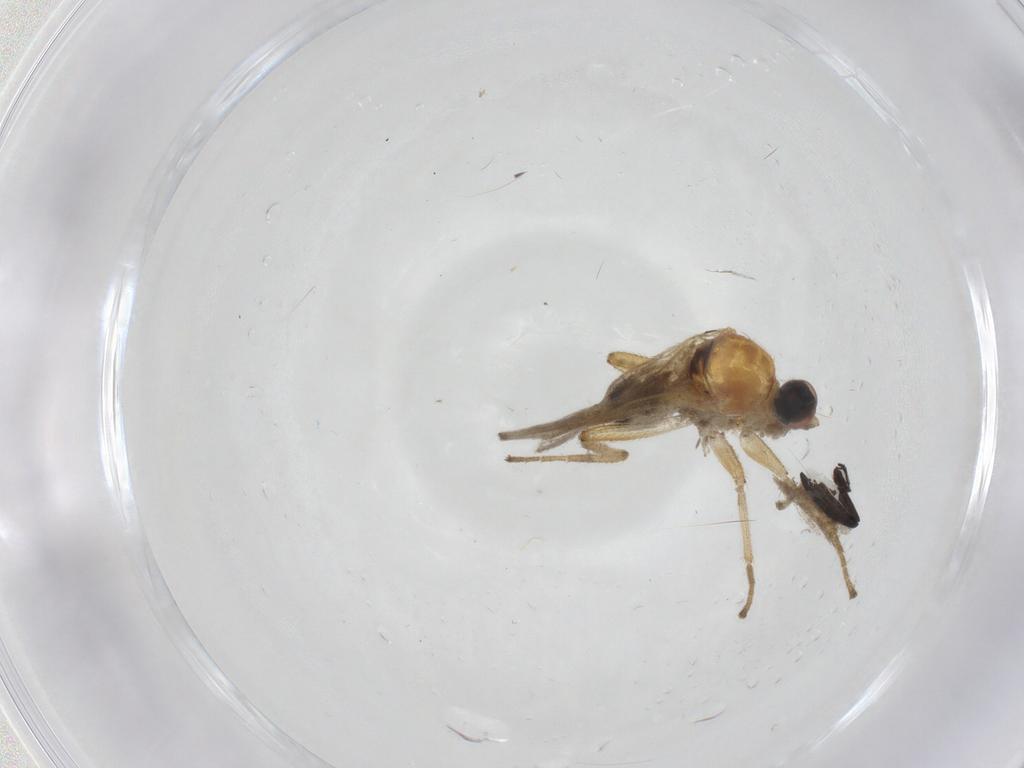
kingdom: Animalia
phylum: Arthropoda
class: Insecta
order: Diptera
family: Limoniidae
